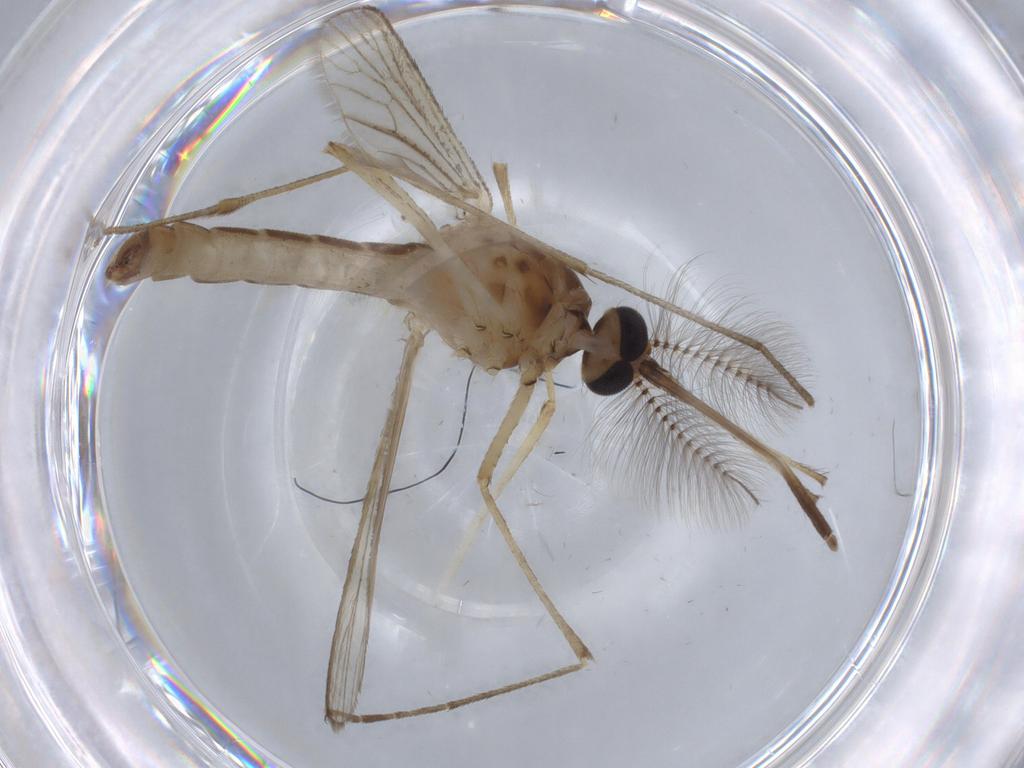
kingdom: Animalia
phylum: Arthropoda
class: Insecta
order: Diptera
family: Culicidae
